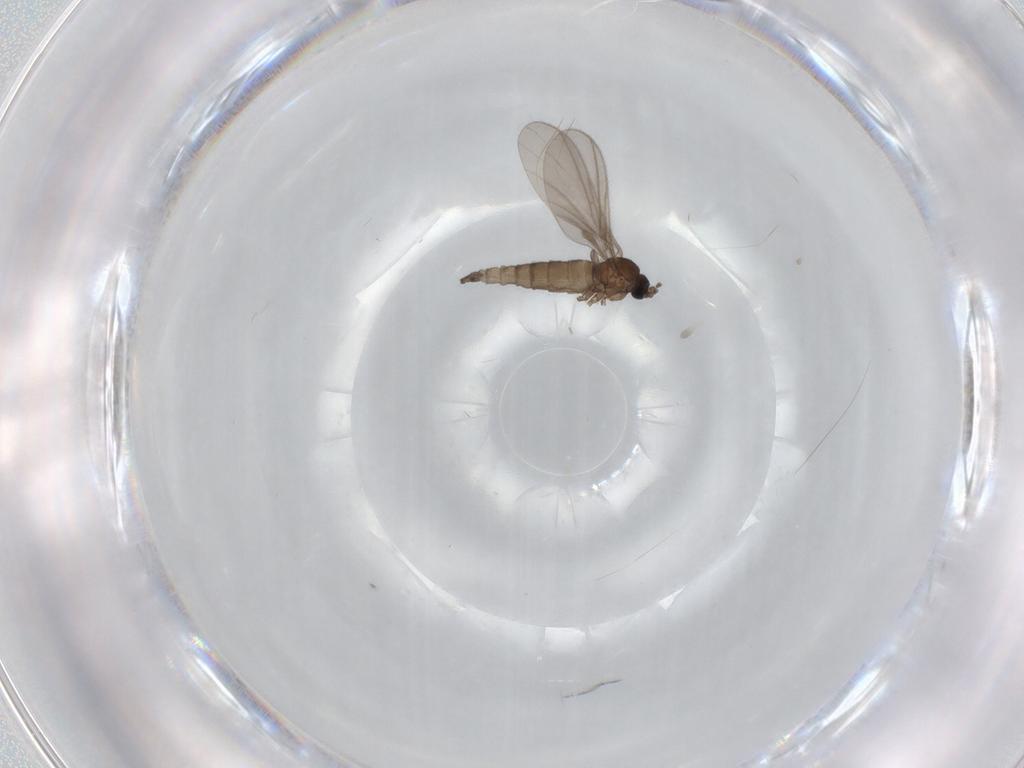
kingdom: Animalia
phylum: Arthropoda
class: Insecta
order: Diptera
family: Sciaridae
